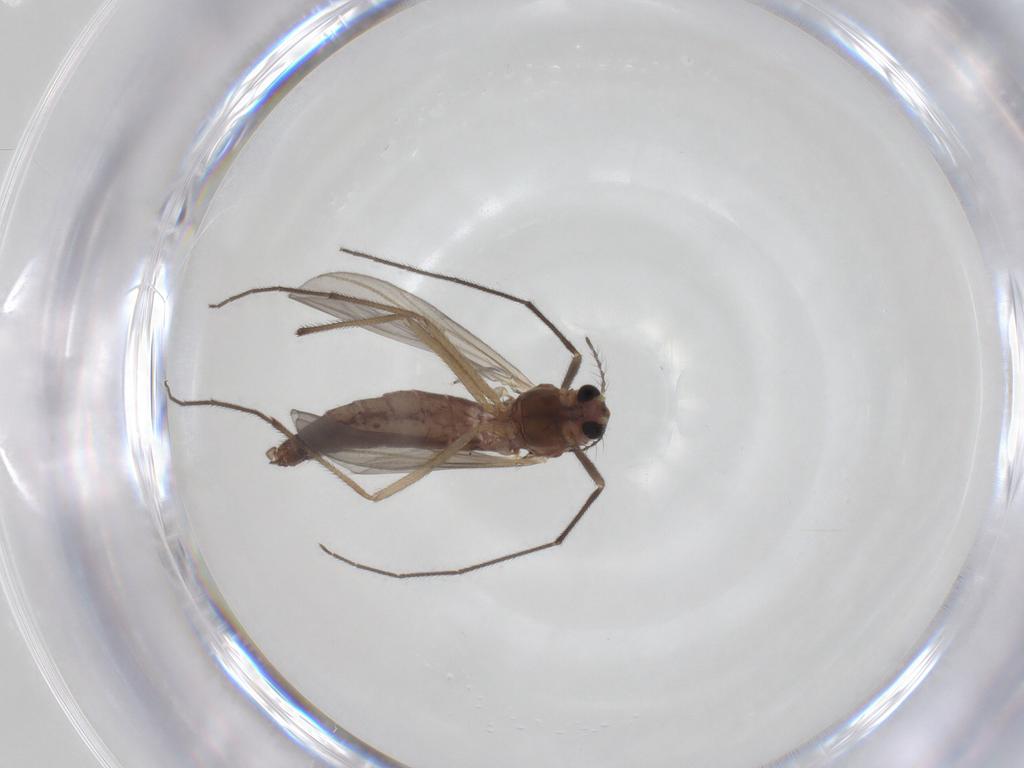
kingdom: Animalia
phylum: Arthropoda
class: Insecta
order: Diptera
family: Chironomidae
